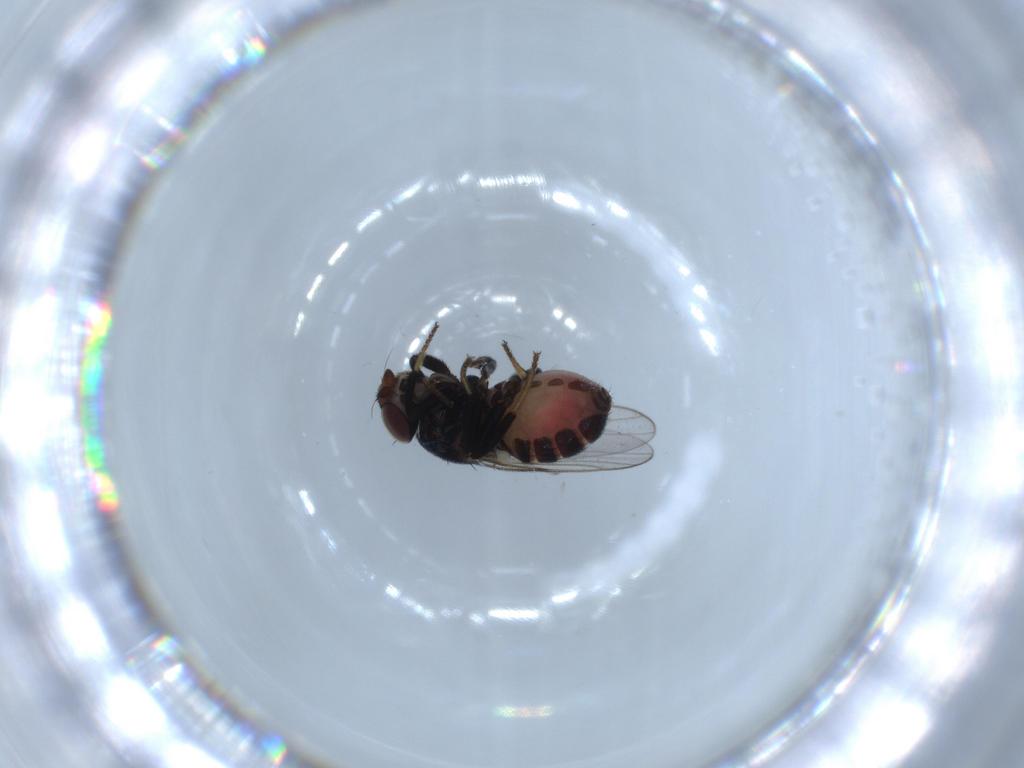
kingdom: Animalia
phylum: Arthropoda
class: Insecta
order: Diptera
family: Chloropidae
